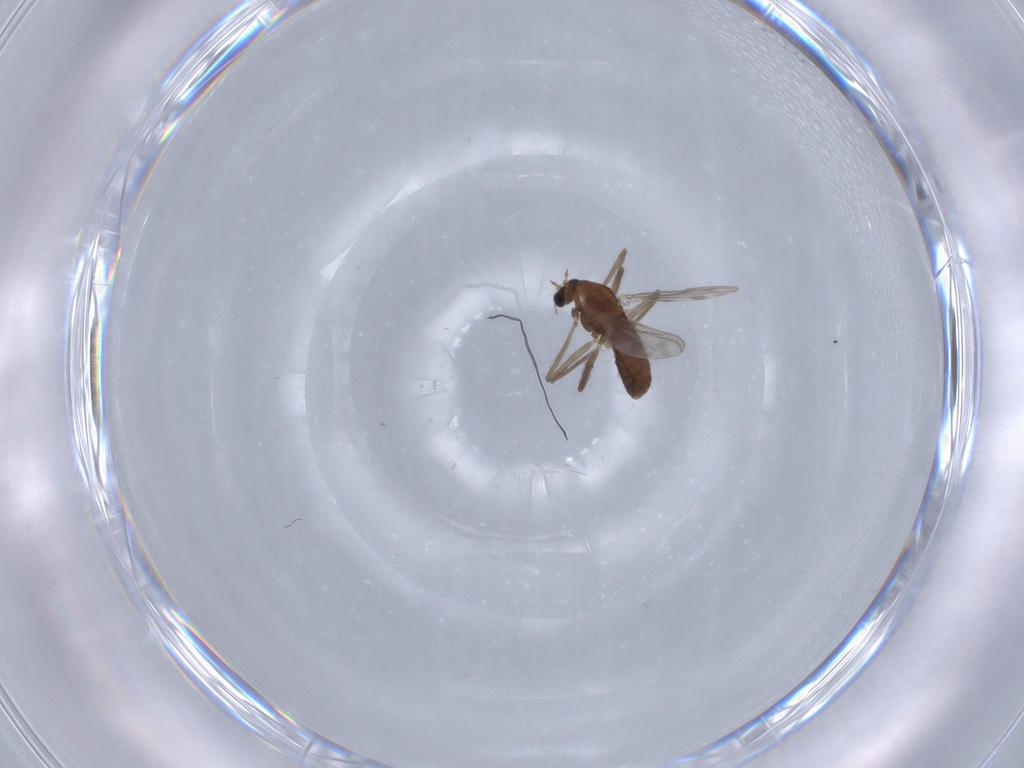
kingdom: Animalia
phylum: Arthropoda
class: Insecta
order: Diptera
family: Chironomidae
